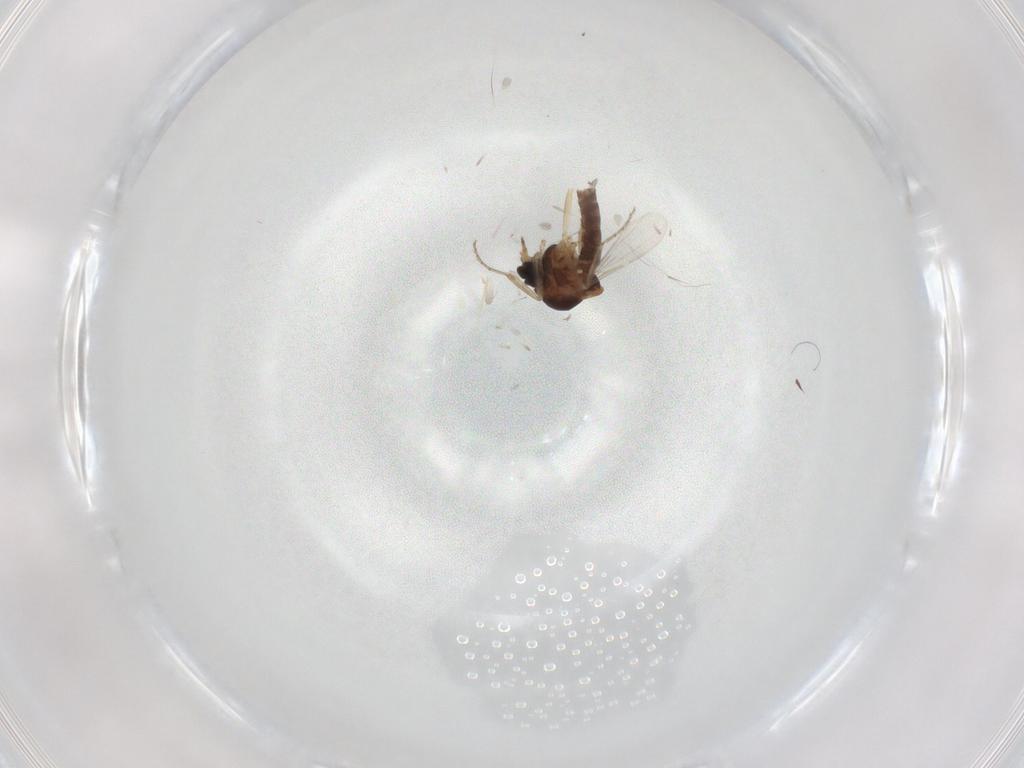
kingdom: Animalia
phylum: Arthropoda
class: Insecta
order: Diptera
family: Ceratopogonidae
